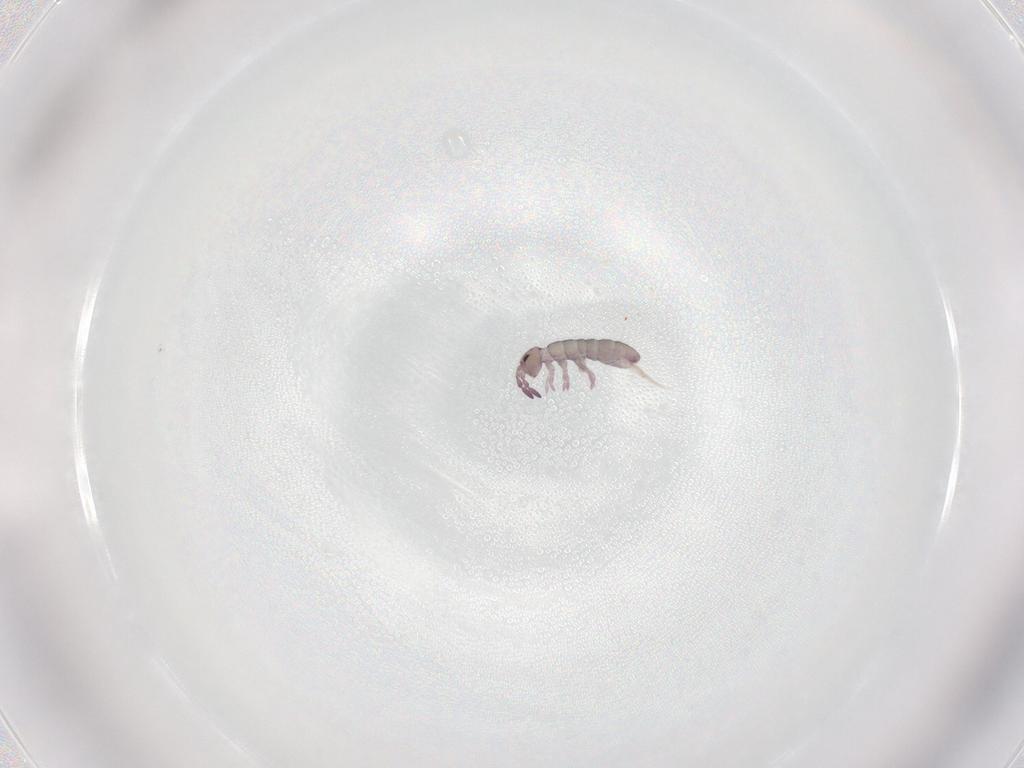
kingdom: Animalia
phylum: Arthropoda
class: Collembola
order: Entomobryomorpha
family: Isotomidae
